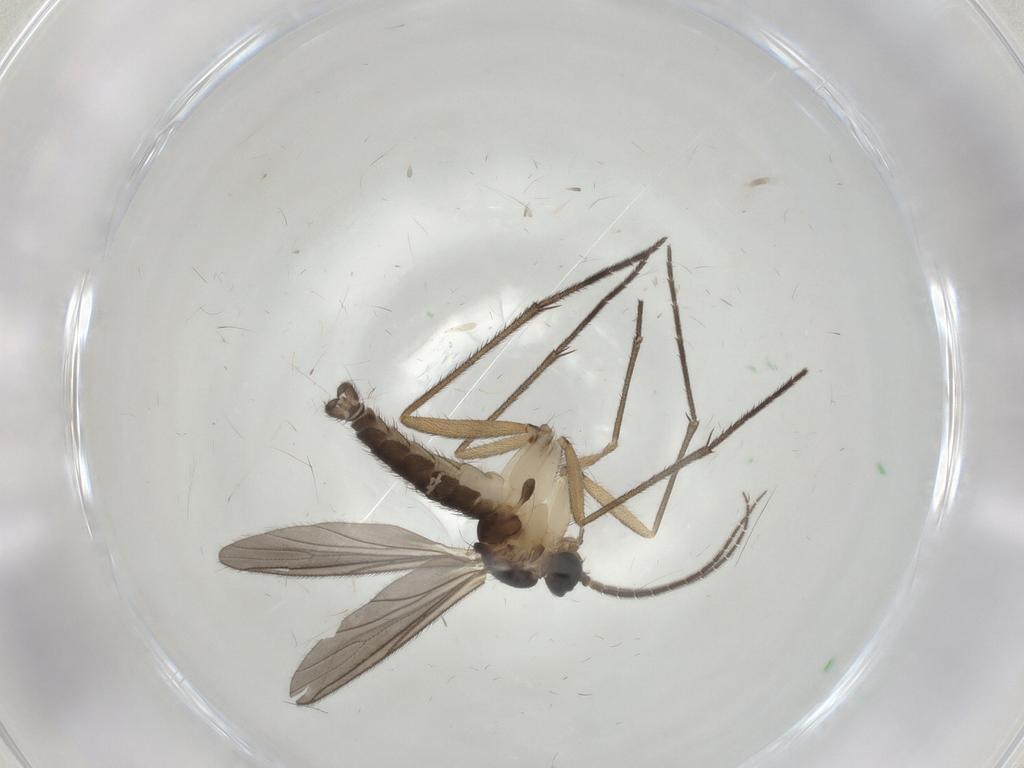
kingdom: Animalia
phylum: Arthropoda
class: Insecta
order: Diptera
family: Sciaridae
